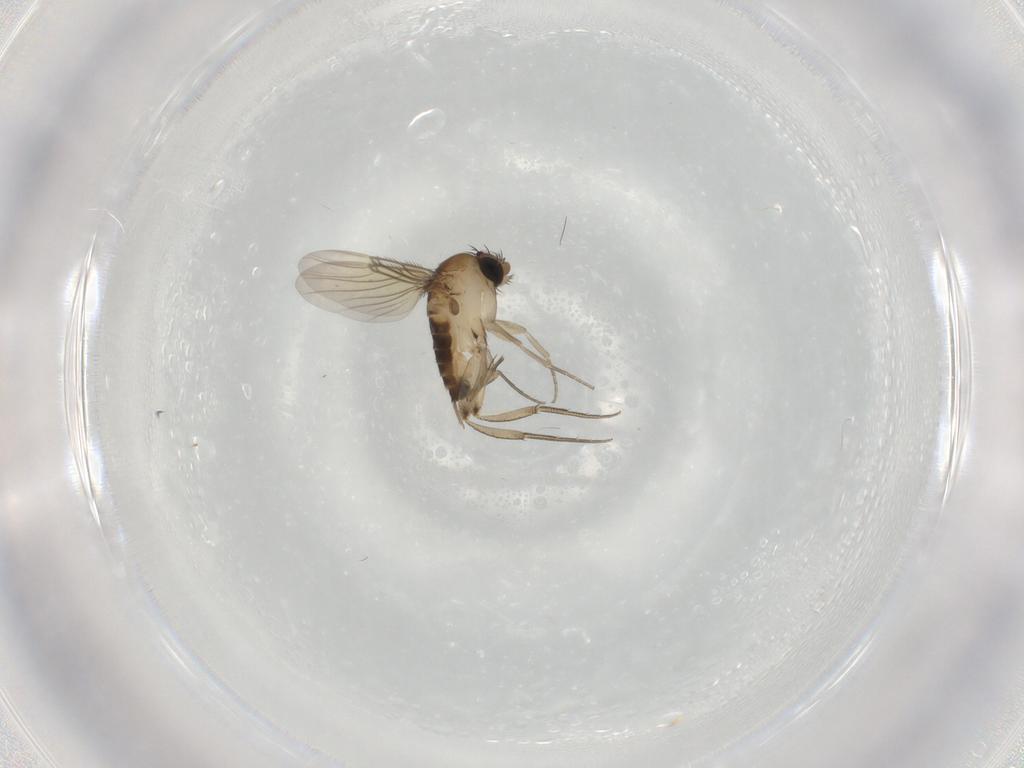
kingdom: Animalia
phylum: Arthropoda
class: Insecta
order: Diptera
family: Phoridae
